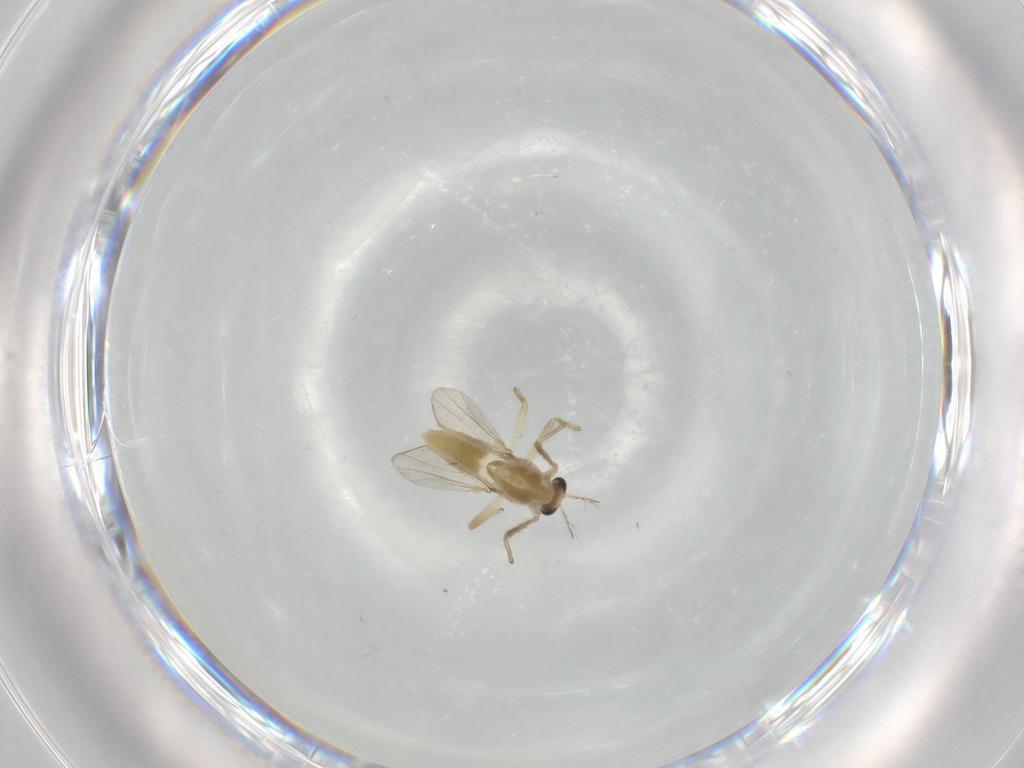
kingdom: Animalia
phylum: Arthropoda
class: Insecta
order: Diptera
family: Chironomidae
